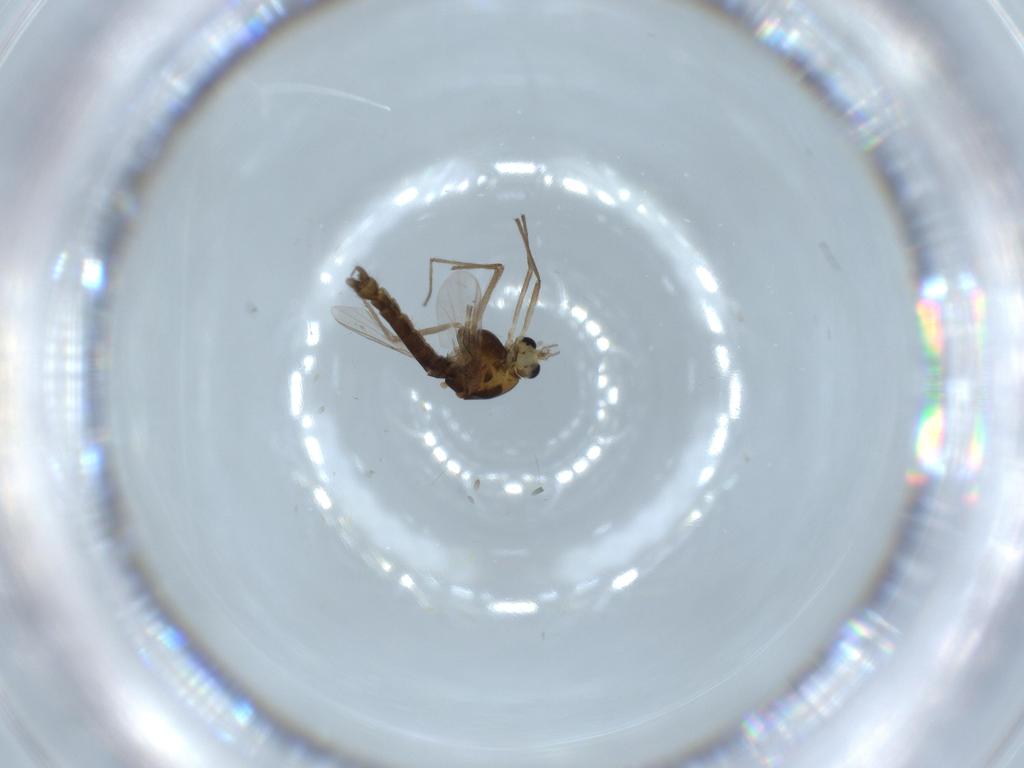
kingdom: Animalia
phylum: Arthropoda
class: Insecta
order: Diptera
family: Chironomidae
